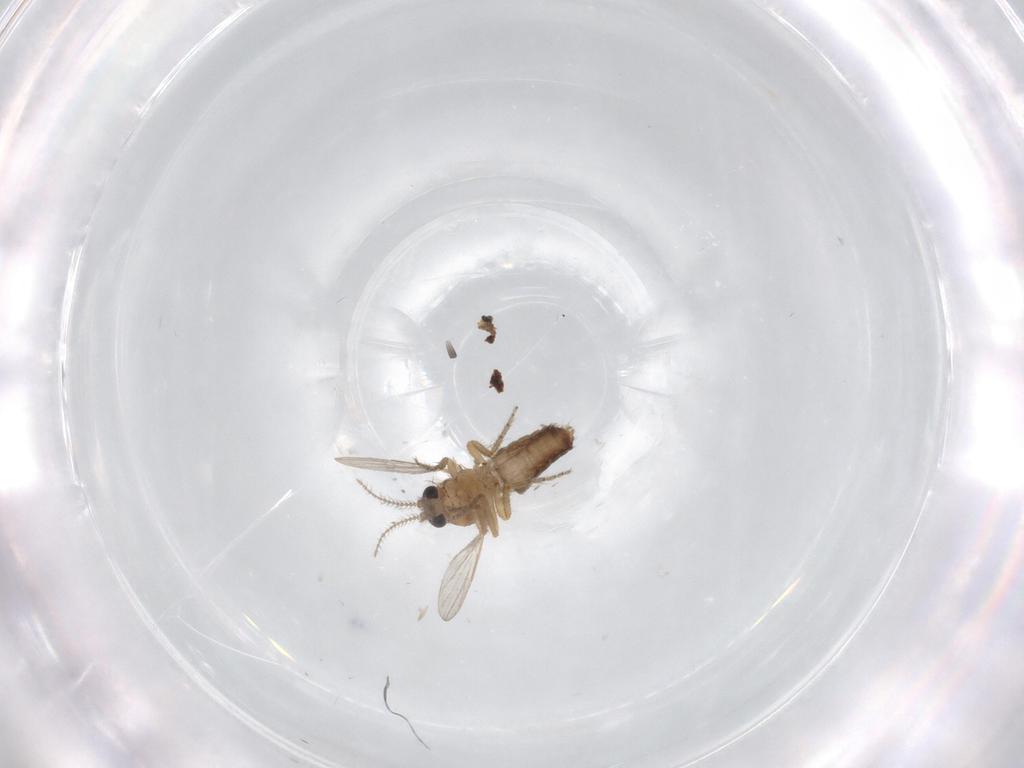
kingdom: Animalia
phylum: Arthropoda
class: Insecta
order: Diptera
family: Ceratopogonidae
